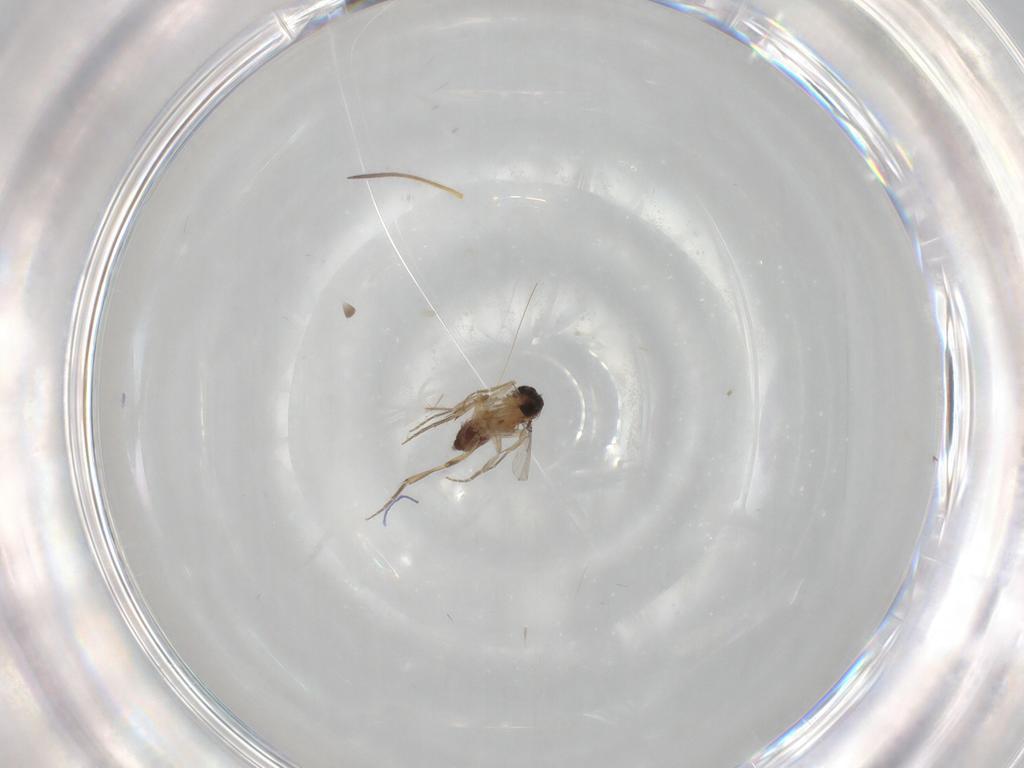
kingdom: Animalia
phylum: Arthropoda
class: Insecta
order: Diptera
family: Phoridae
